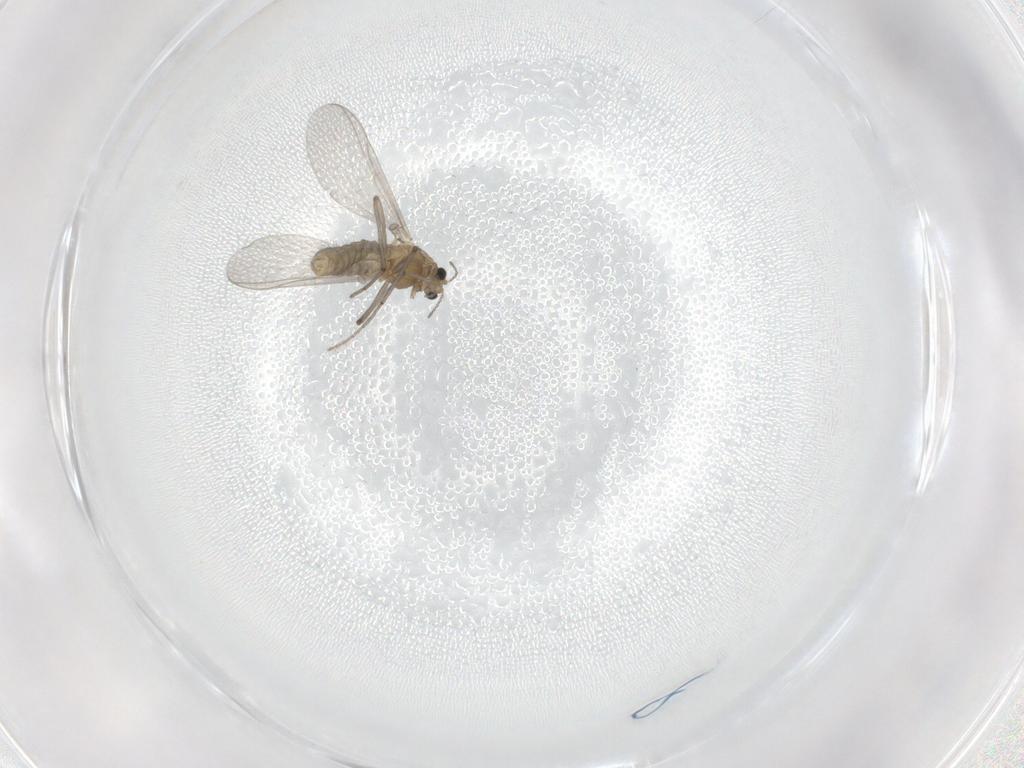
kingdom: Animalia
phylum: Arthropoda
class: Insecta
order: Diptera
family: Chironomidae
